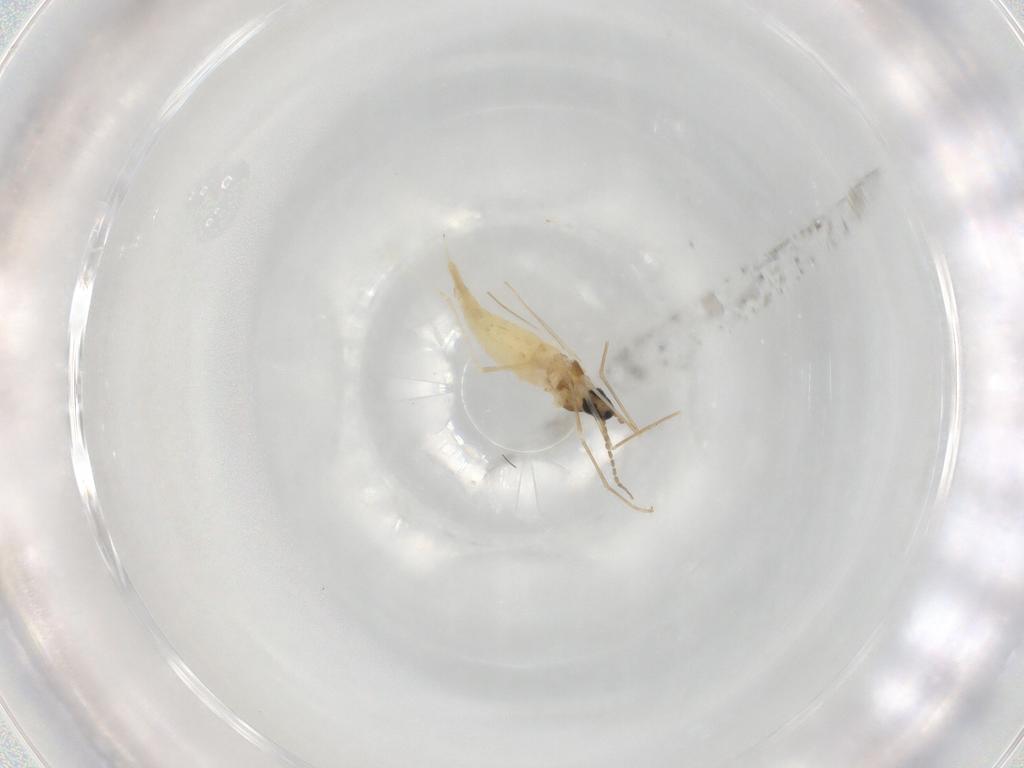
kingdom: Animalia
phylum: Arthropoda
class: Insecta
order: Diptera
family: Cecidomyiidae
